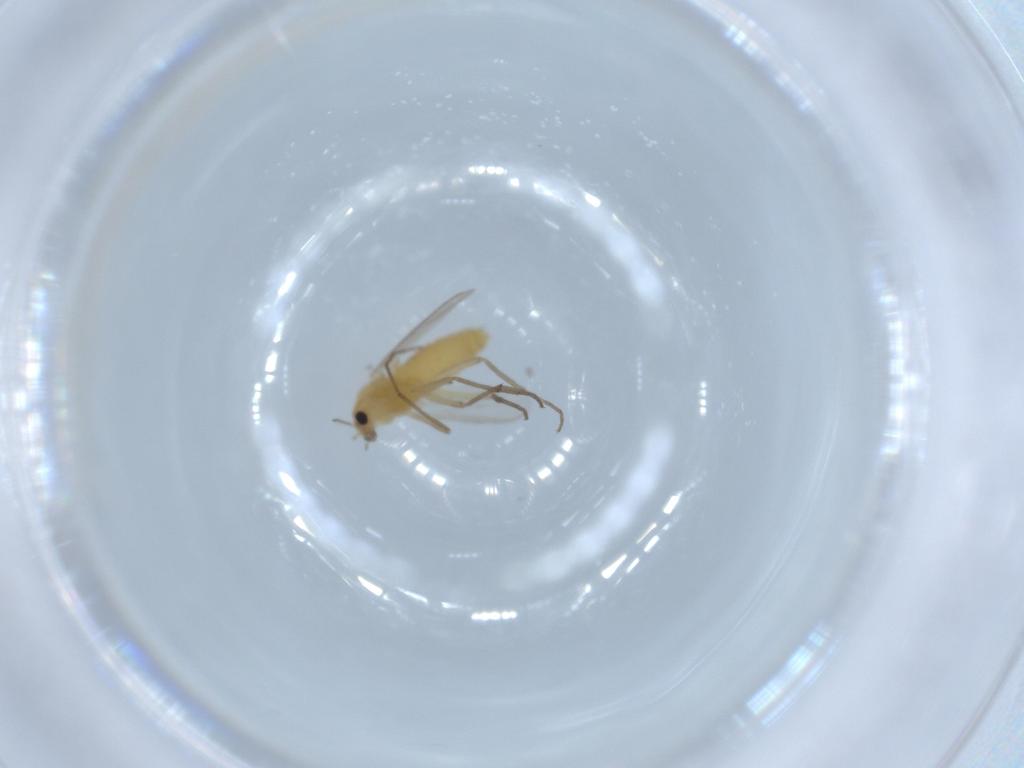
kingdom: Animalia
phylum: Arthropoda
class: Insecta
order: Diptera
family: Chironomidae
